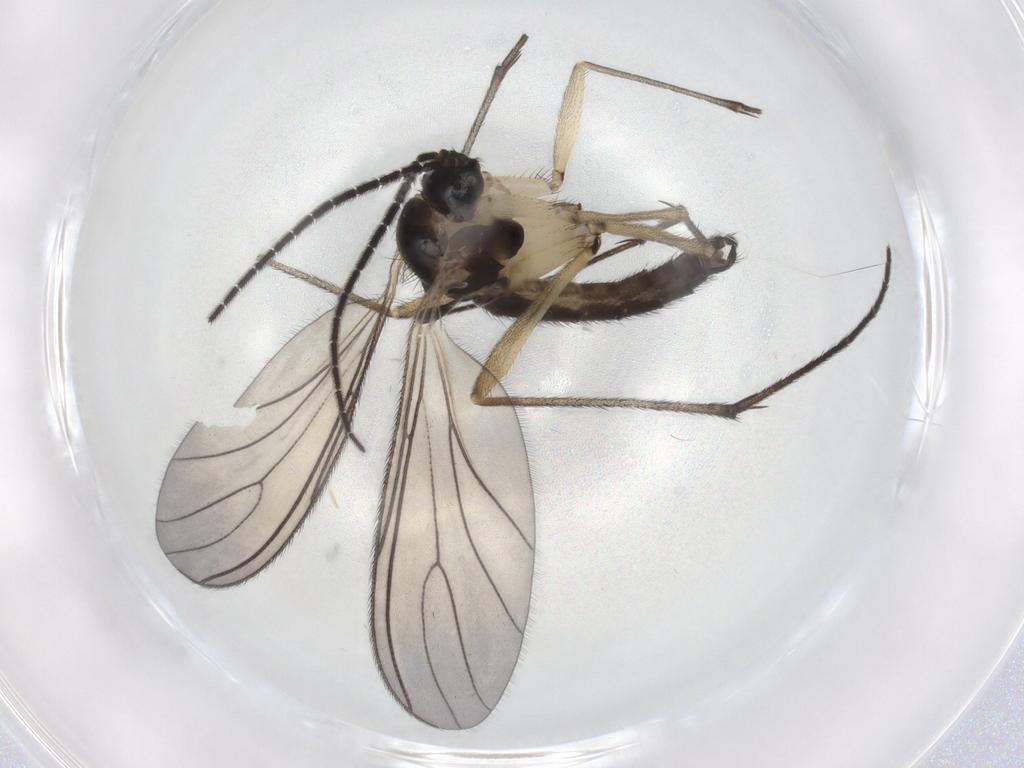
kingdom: Animalia
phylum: Arthropoda
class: Insecta
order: Diptera
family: Sciaridae
